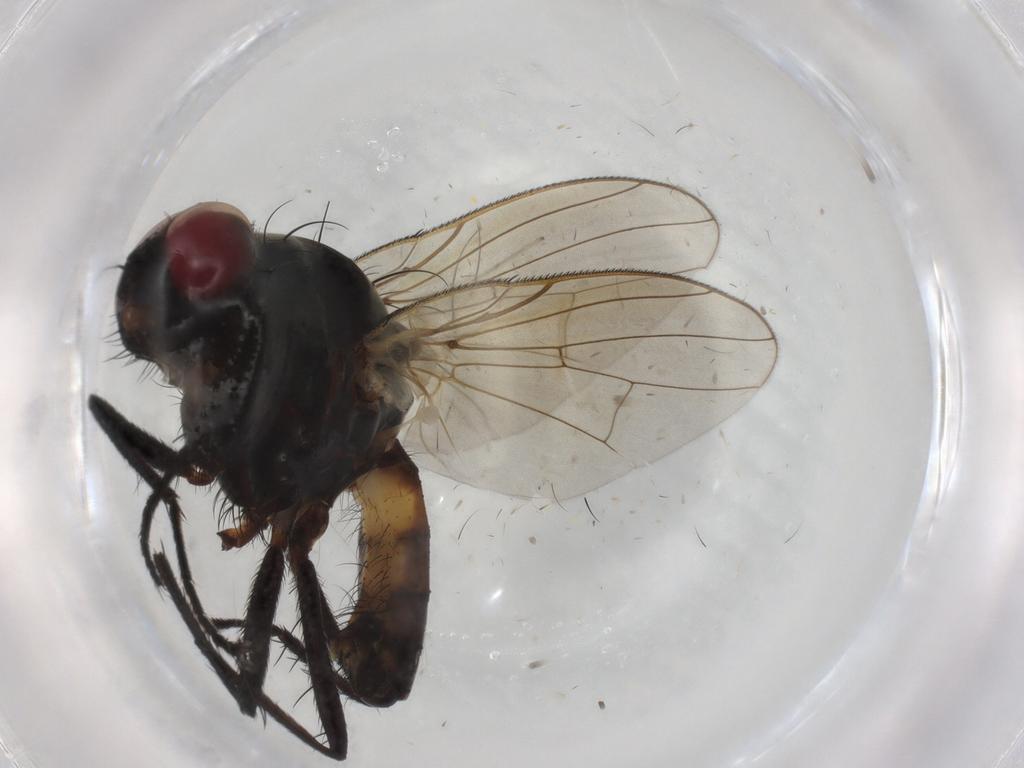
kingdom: Animalia
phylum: Arthropoda
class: Insecta
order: Diptera
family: Anthomyiidae
